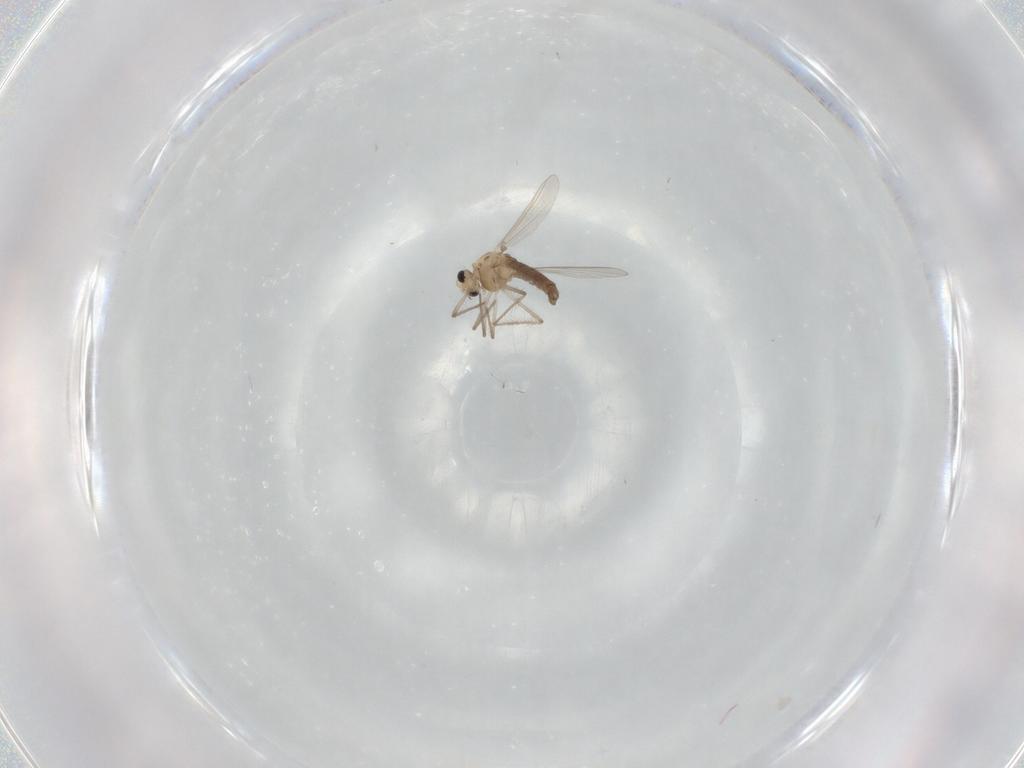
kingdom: Animalia
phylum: Arthropoda
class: Insecta
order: Diptera
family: Chironomidae
